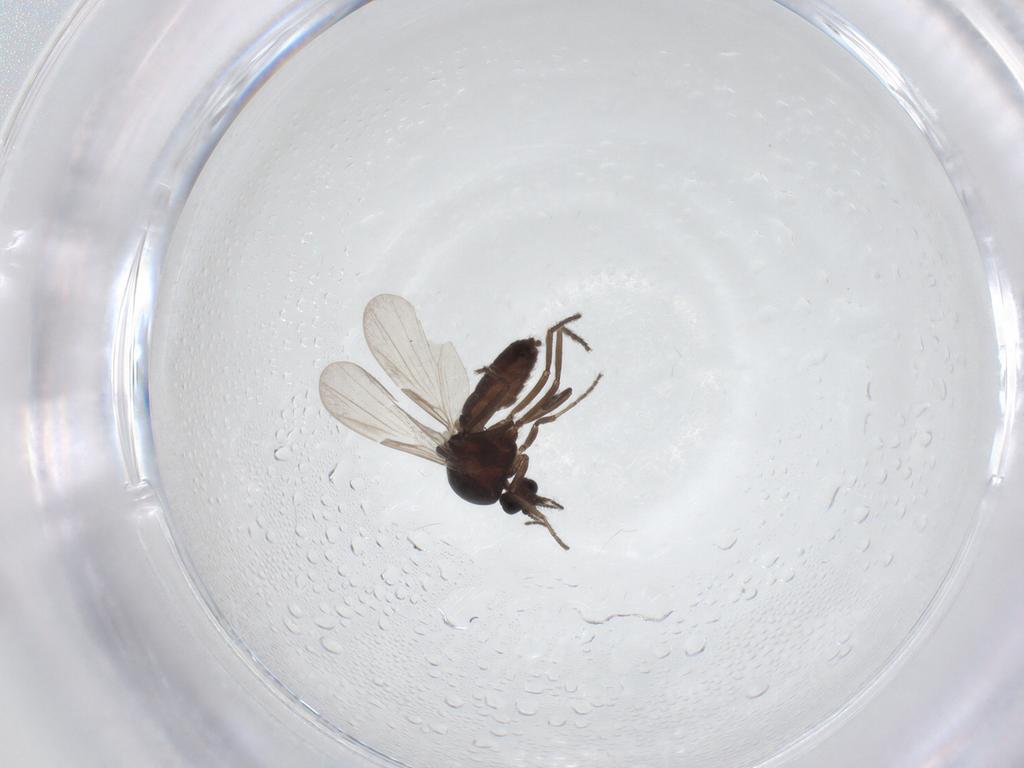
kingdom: Animalia
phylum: Arthropoda
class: Insecta
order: Diptera
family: Ceratopogonidae
